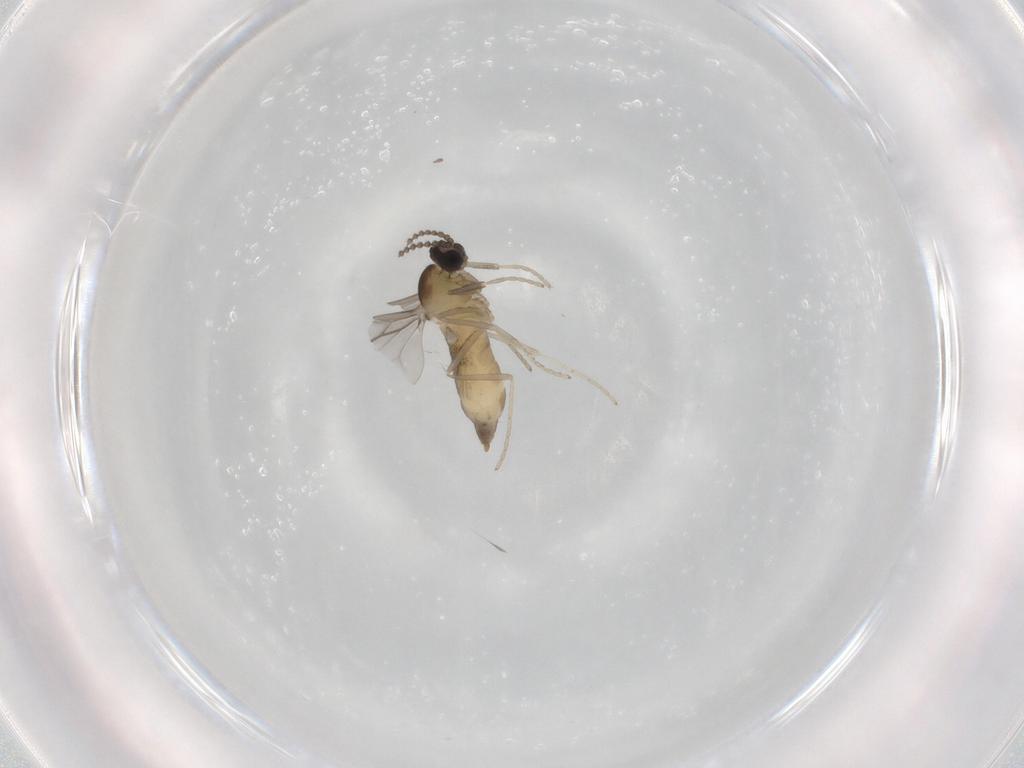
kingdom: Animalia
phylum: Arthropoda
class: Insecta
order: Diptera
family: Cecidomyiidae
